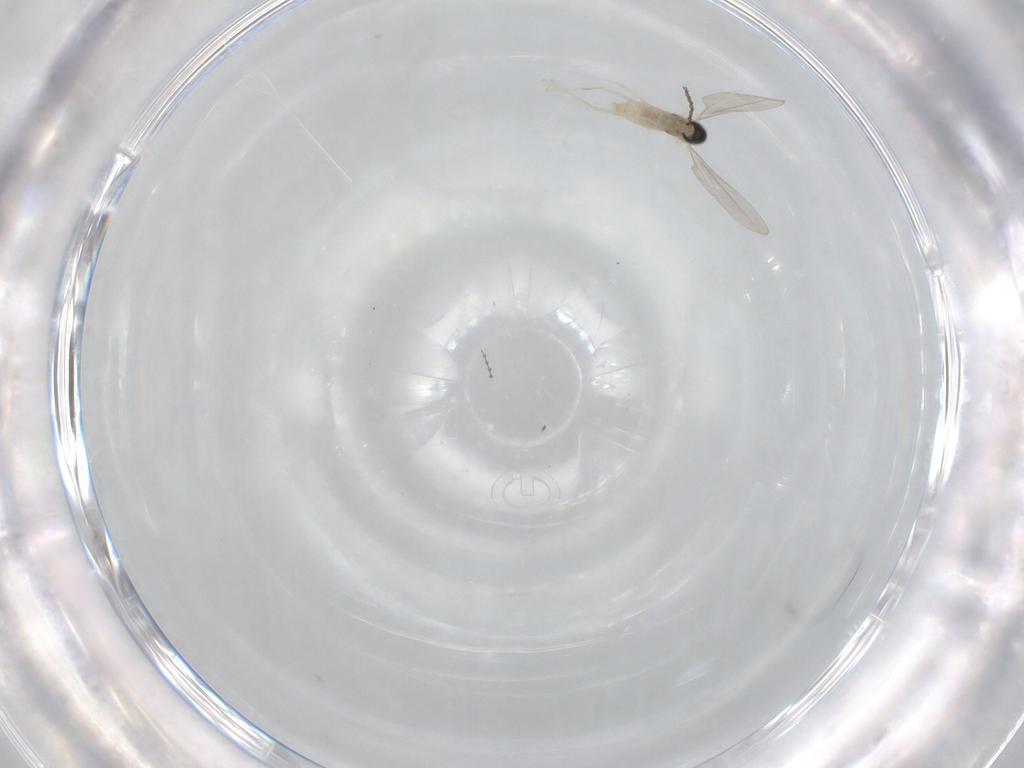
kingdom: Animalia
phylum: Arthropoda
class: Insecta
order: Diptera
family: Cecidomyiidae
